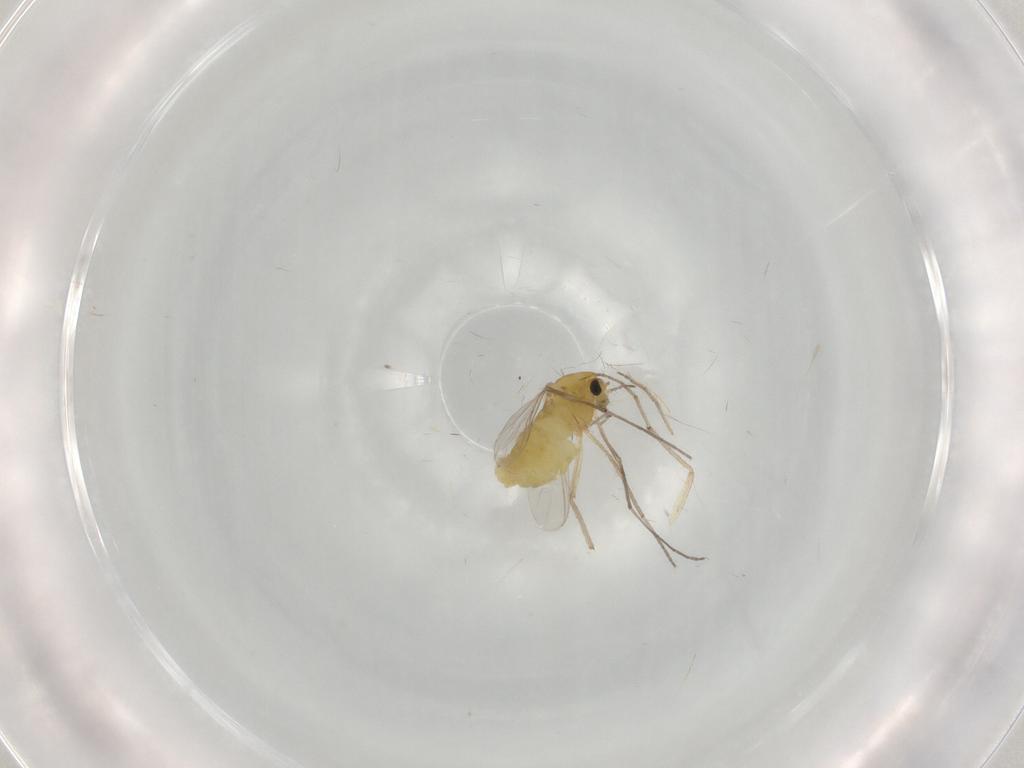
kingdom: Animalia
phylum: Arthropoda
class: Insecta
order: Diptera
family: Chironomidae
